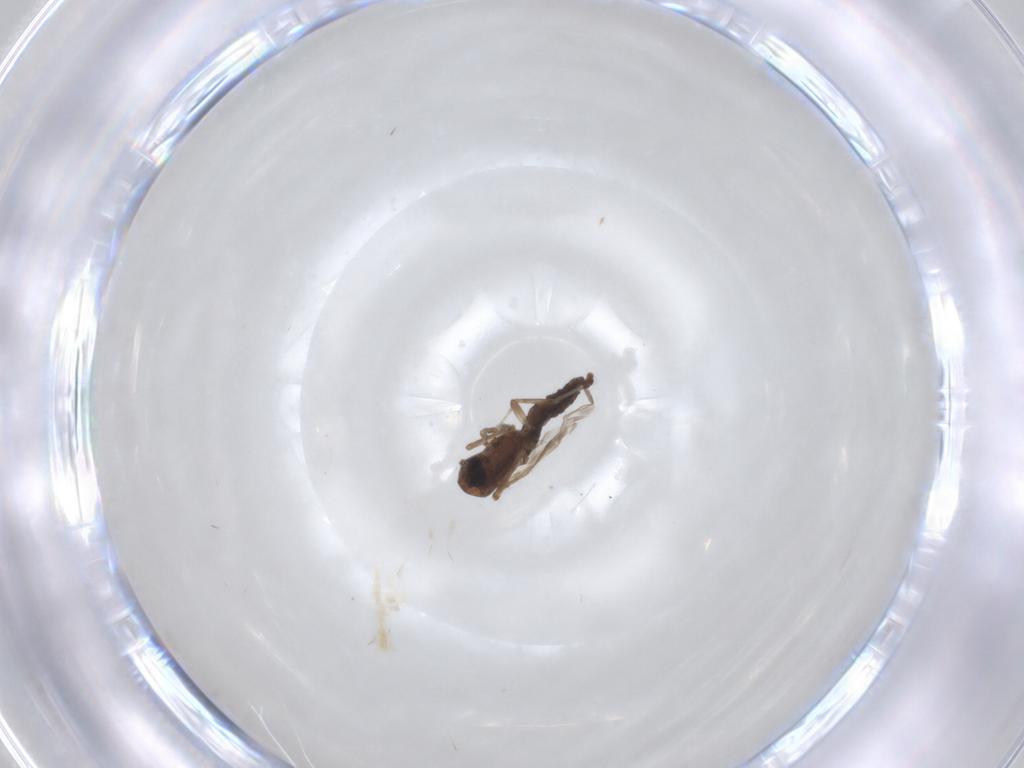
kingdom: Animalia
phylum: Arthropoda
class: Insecta
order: Diptera
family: Ceratopogonidae
